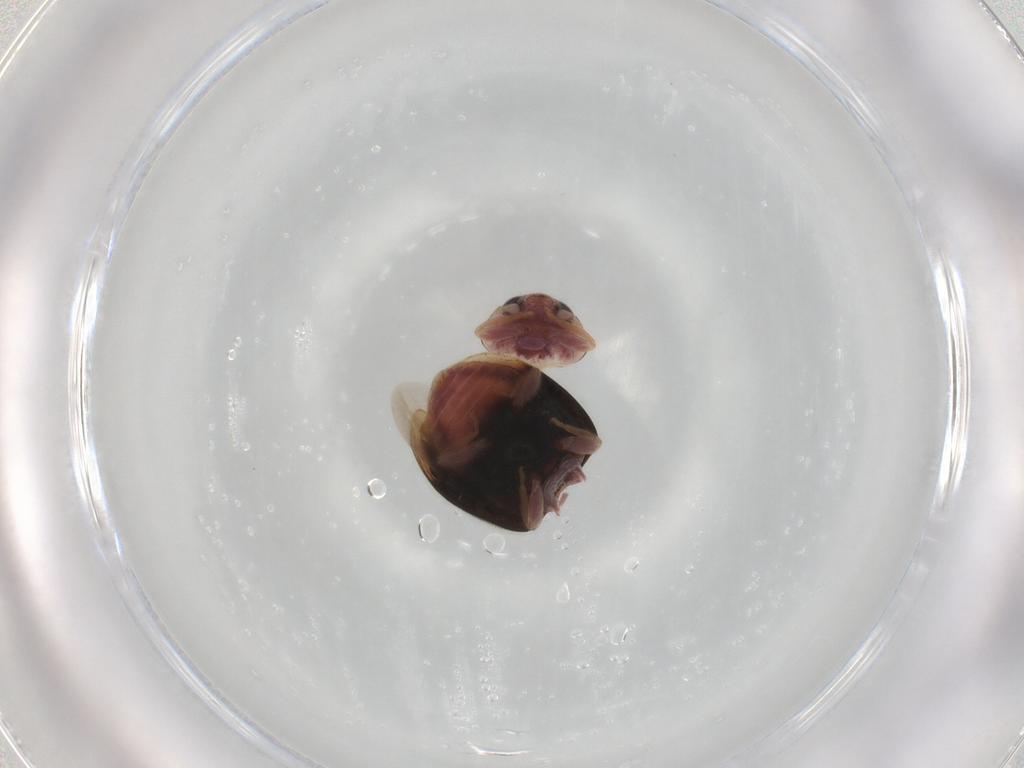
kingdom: Animalia
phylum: Arthropoda
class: Insecta
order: Coleoptera
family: Coccinellidae
